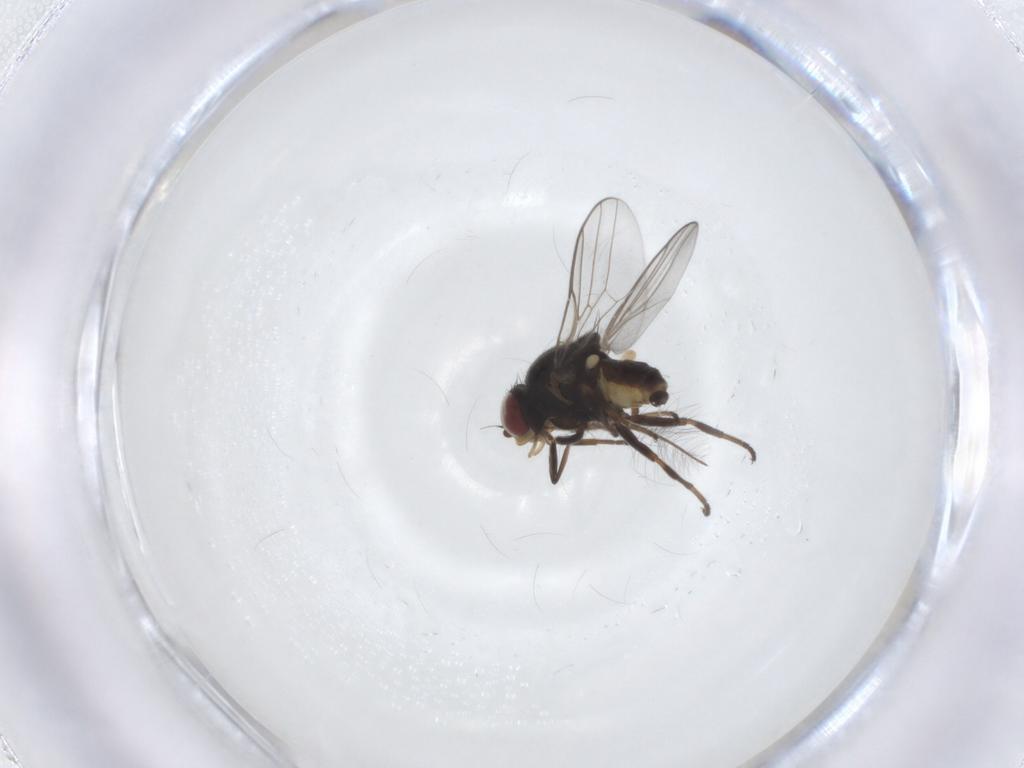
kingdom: Animalia
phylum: Arthropoda
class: Insecta
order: Diptera
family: Chloropidae
